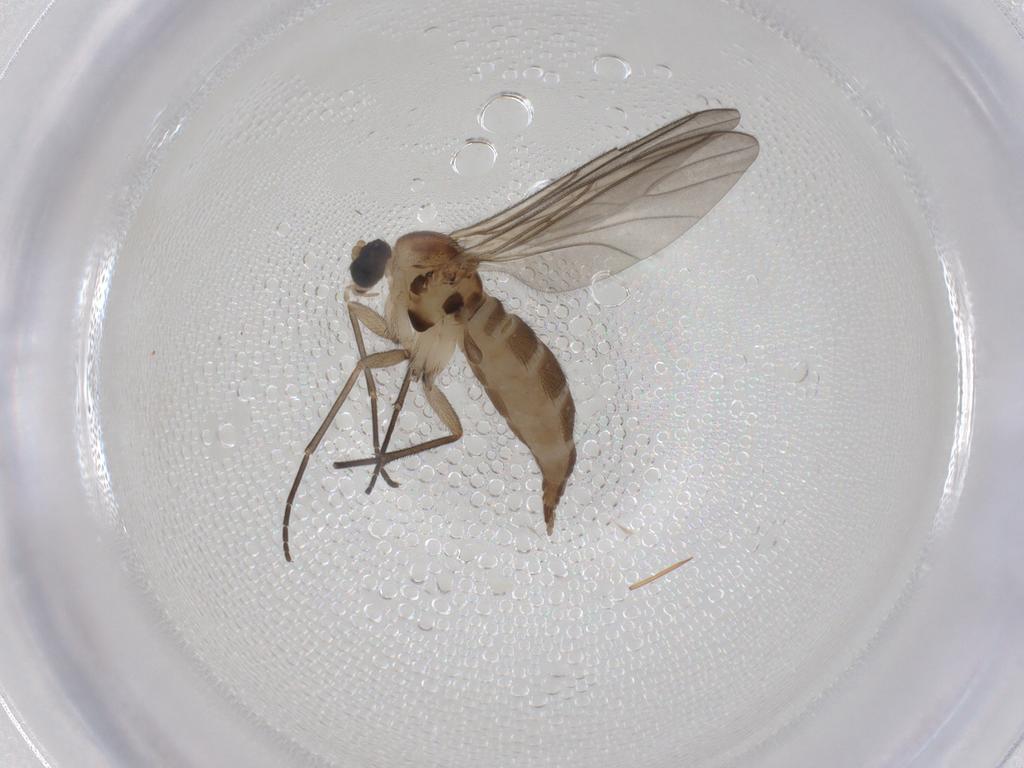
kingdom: Animalia
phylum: Arthropoda
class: Insecta
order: Diptera
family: Sciaridae
